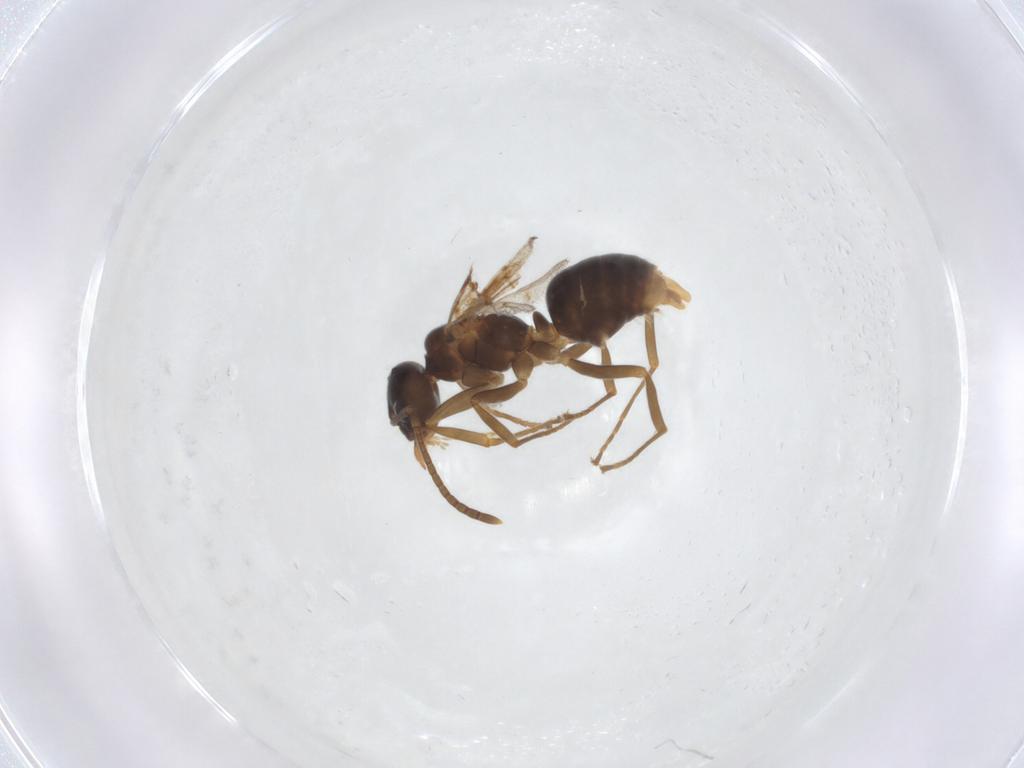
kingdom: Animalia
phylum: Arthropoda
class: Insecta
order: Hymenoptera
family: Formicidae
